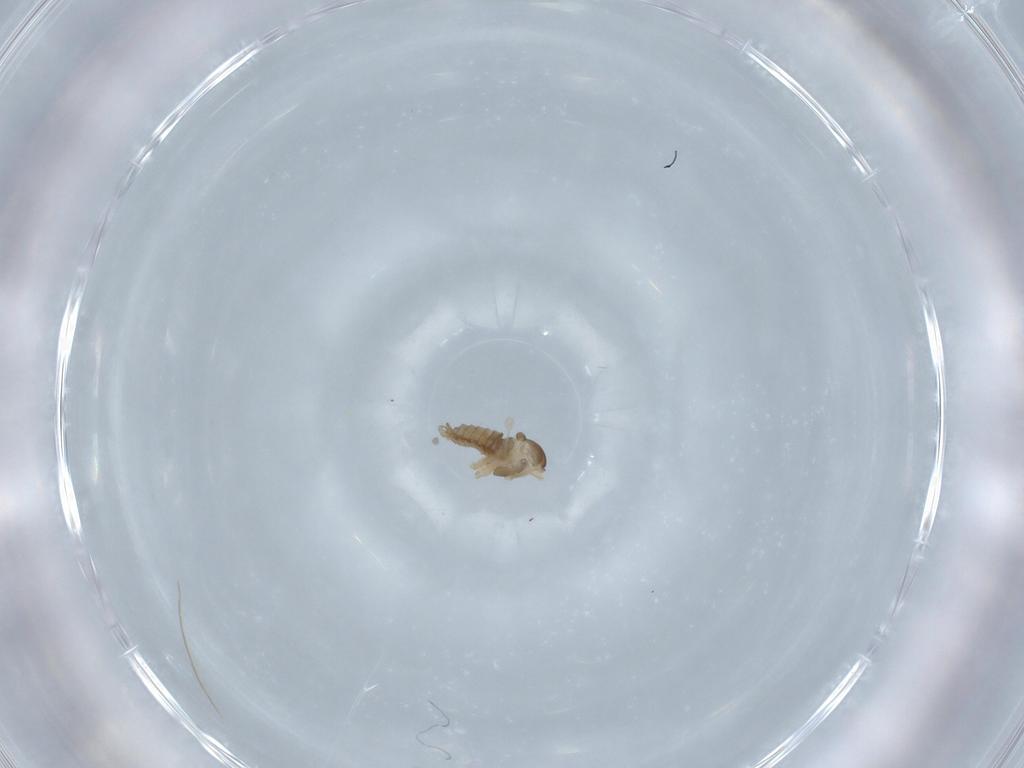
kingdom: Animalia
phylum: Arthropoda
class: Insecta
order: Diptera
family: Cecidomyiidae
